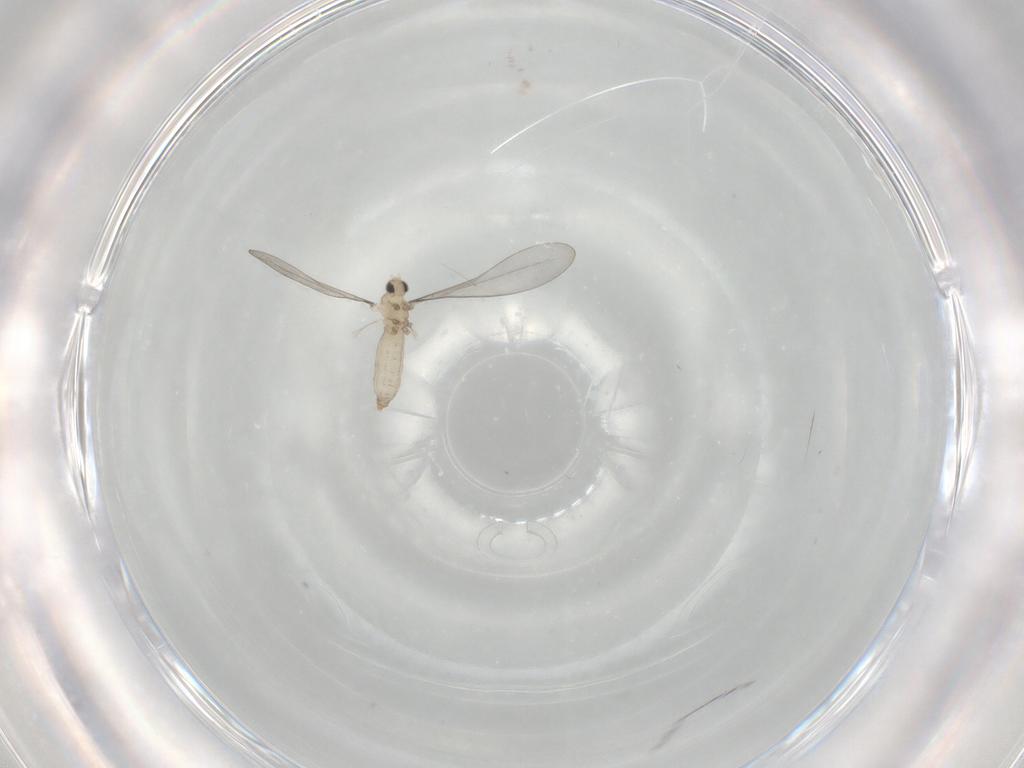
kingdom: Animalia
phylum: Arthropoda
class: Insecta
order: Diptera
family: Psychodidae
